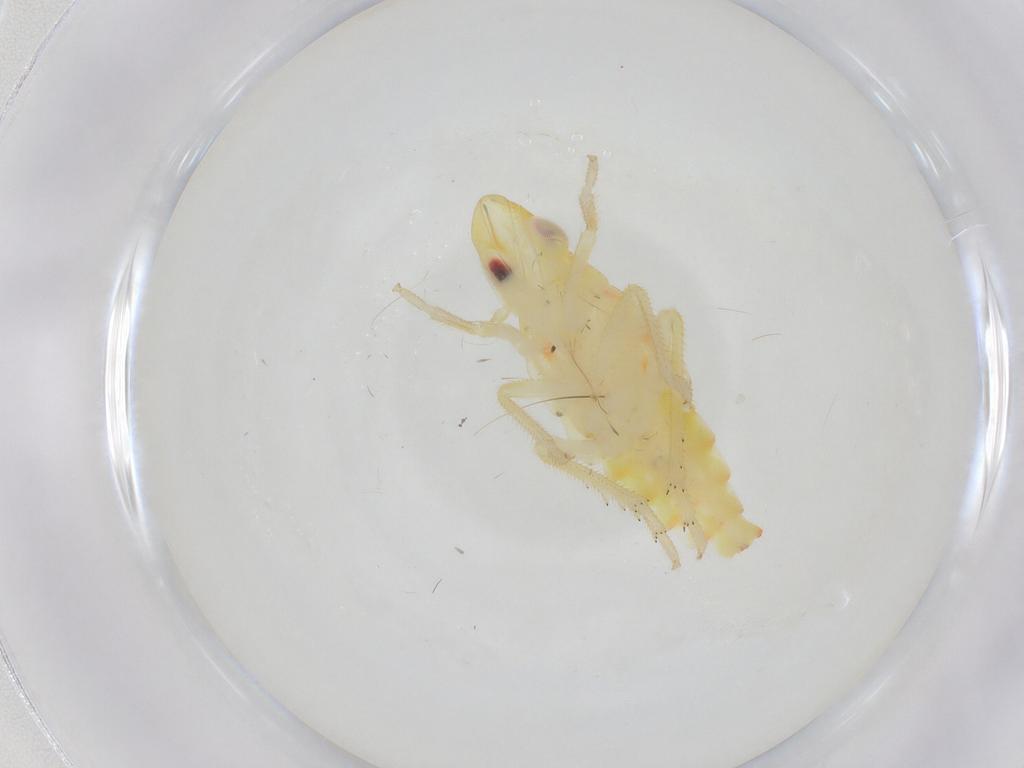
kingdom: Animalia
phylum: Arthropoda
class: Insecta
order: Hemiptera
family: Tropiduchidae
